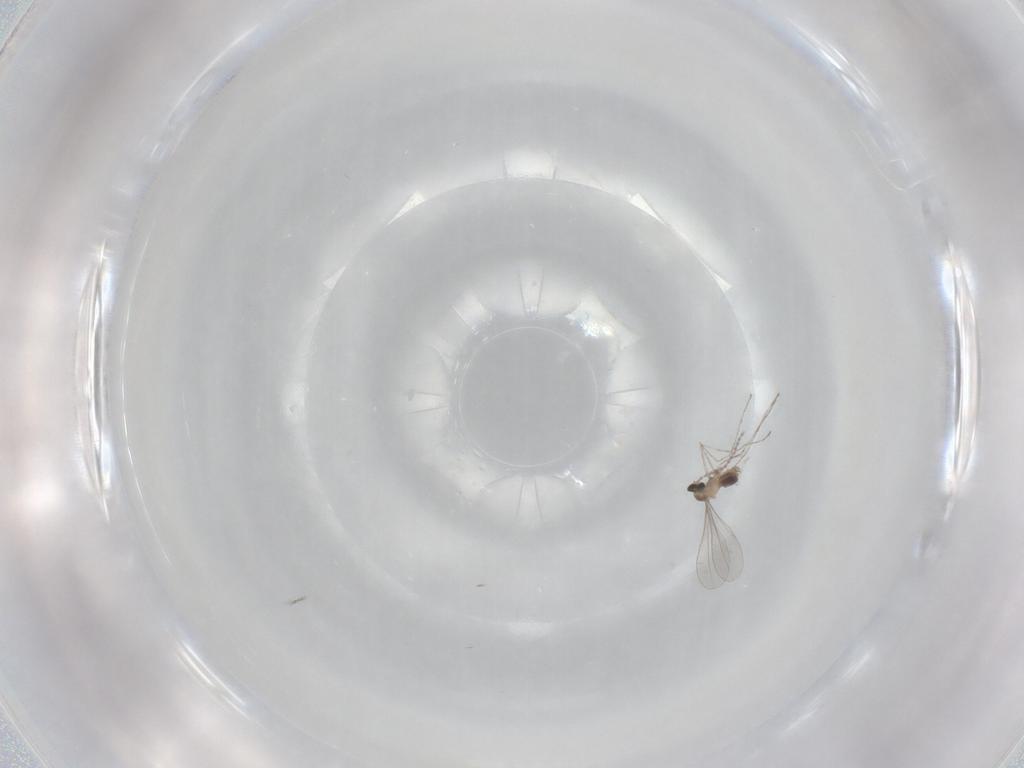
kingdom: Animalia
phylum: Arthropoda
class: Insecta
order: Diptera
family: Cecidomyiidae
